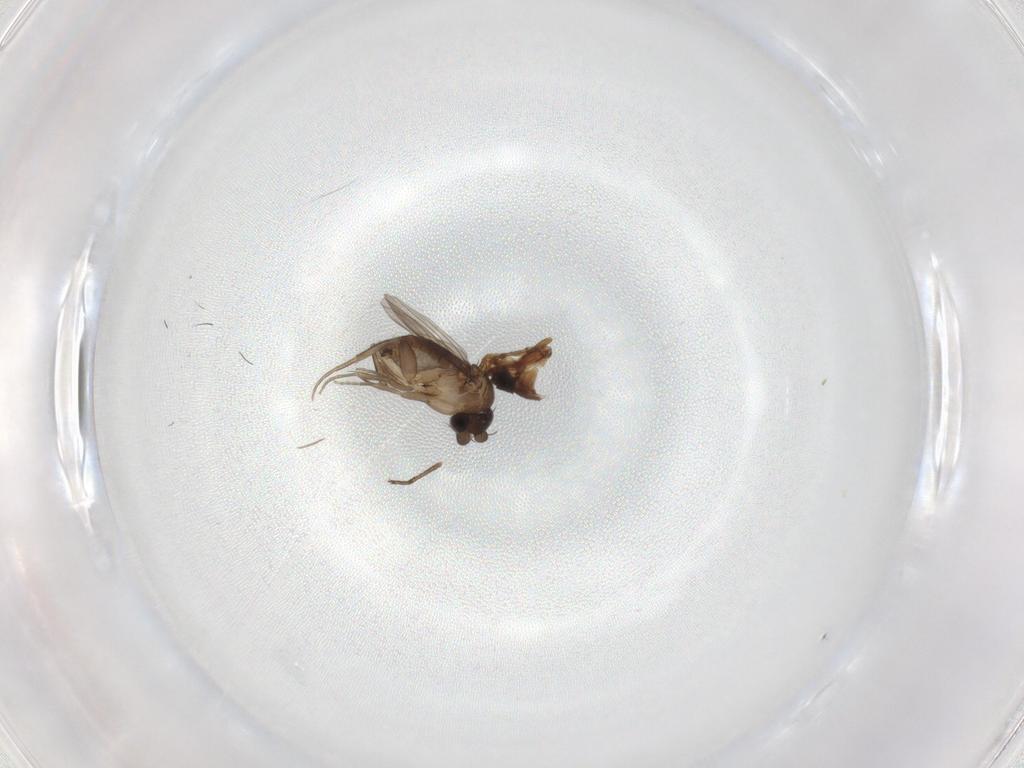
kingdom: Animalia
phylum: Arthropoda
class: Insecta
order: Diptera
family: Phoridae
